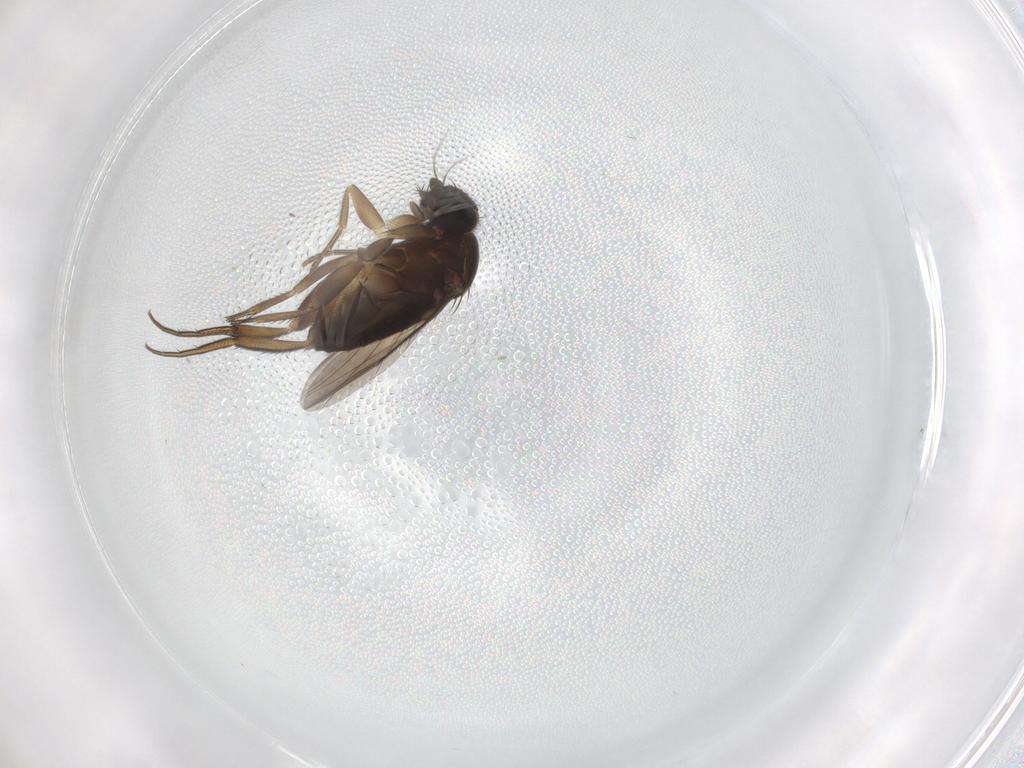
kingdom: Animalia
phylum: Arthropoda
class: Insecta
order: Diptera
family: Phoridae
